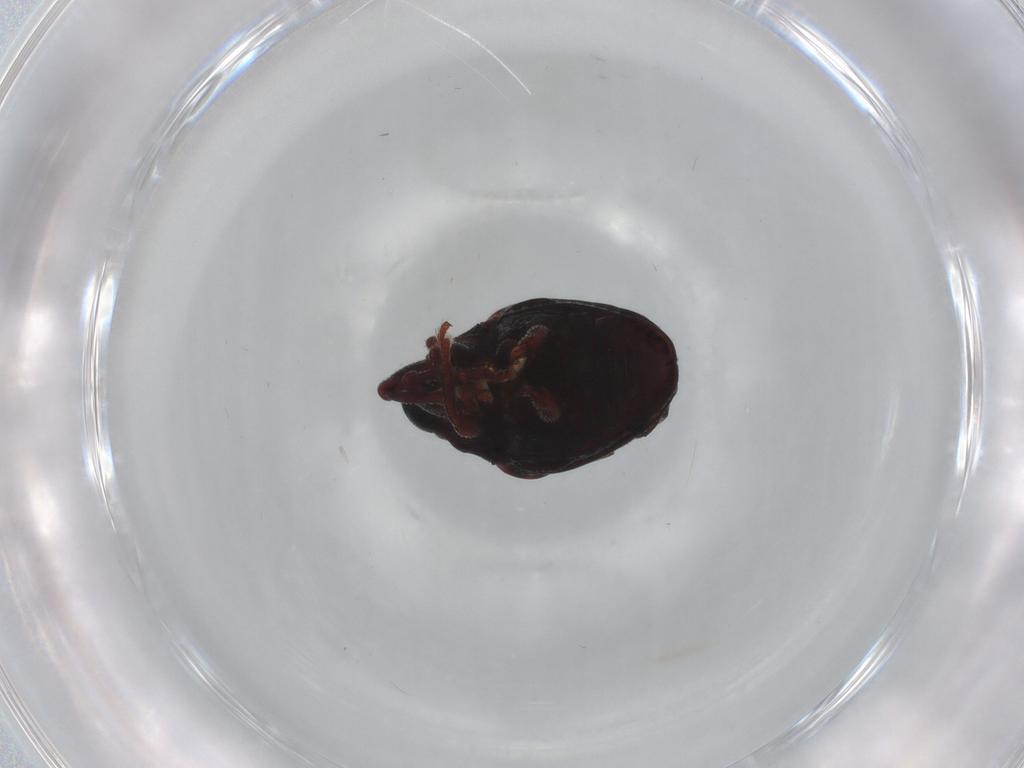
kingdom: Animalia
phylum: Arthropoda
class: Insecta
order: Coleoptera
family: Curculionidae
